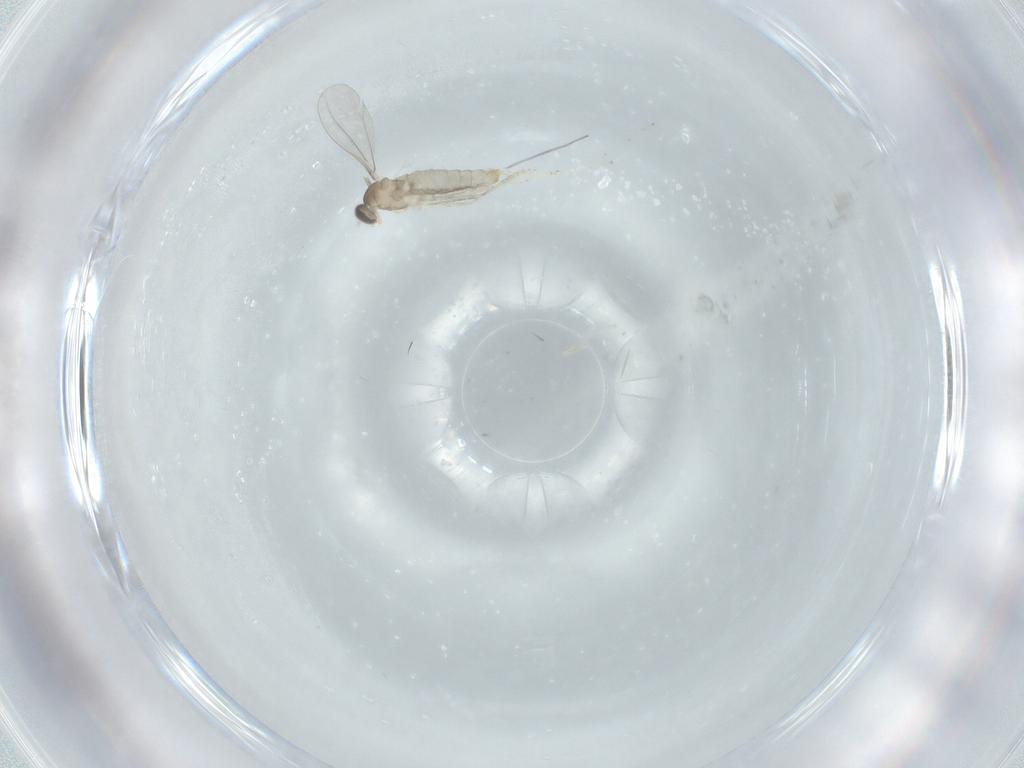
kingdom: Animalia
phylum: Arthropoda
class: Insecta
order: Diptera
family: Cecidomyiidae
